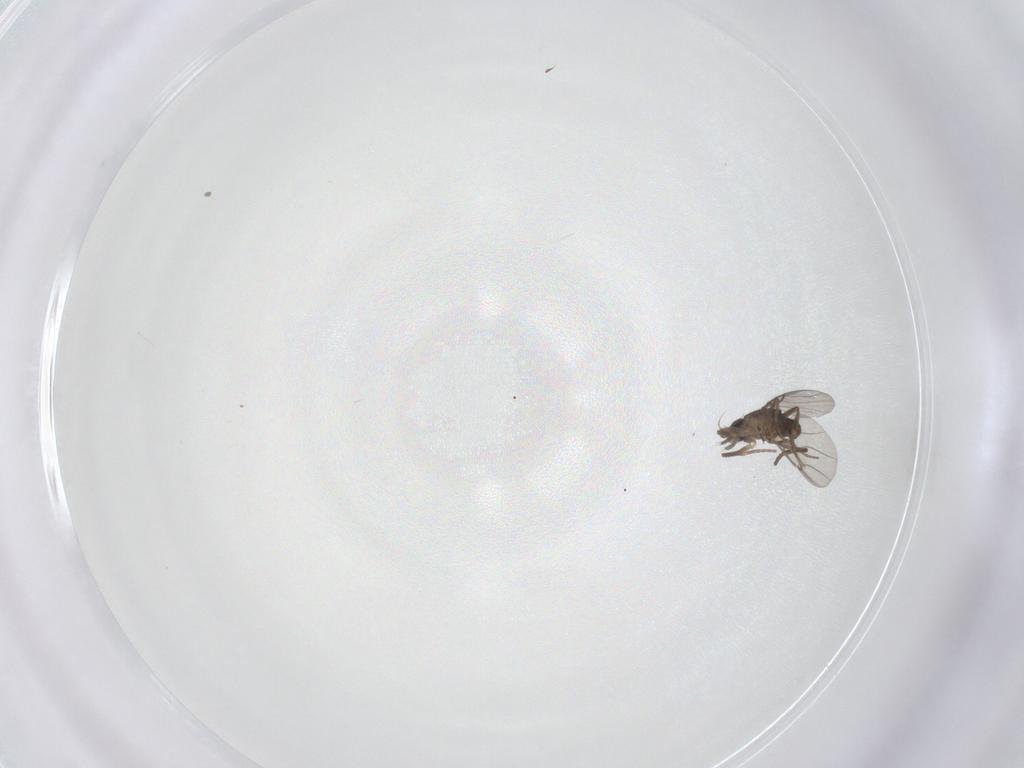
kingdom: Animalia
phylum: Arthropoda
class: Insecta
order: Diptera
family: Phoridae
